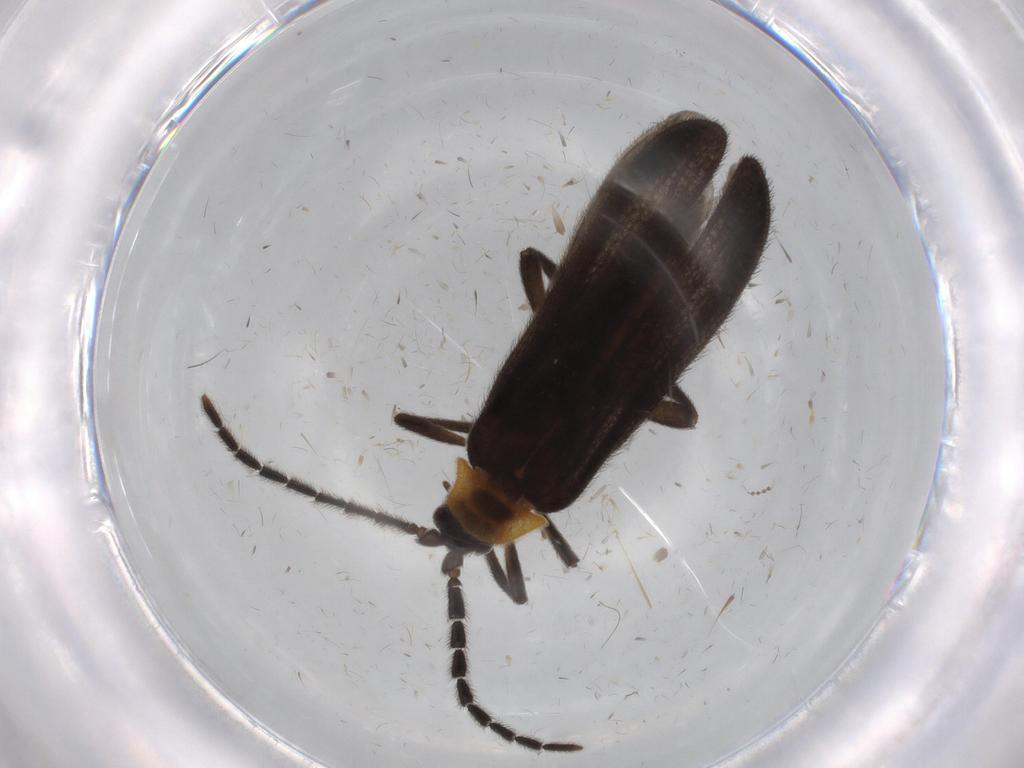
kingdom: Animalia
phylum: Arthropoda
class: Insecta
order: Coleoptera
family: Lycidae
